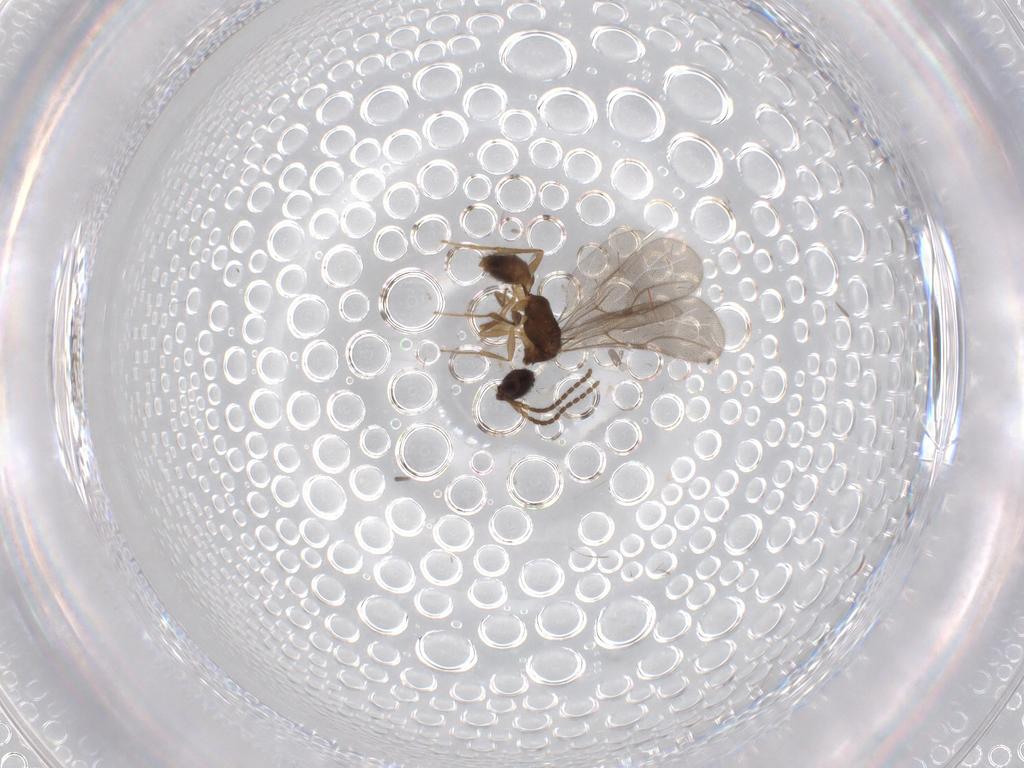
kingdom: Animalia
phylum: Arthropoda
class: Insecta
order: Hymenoptera
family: Bethylidae
